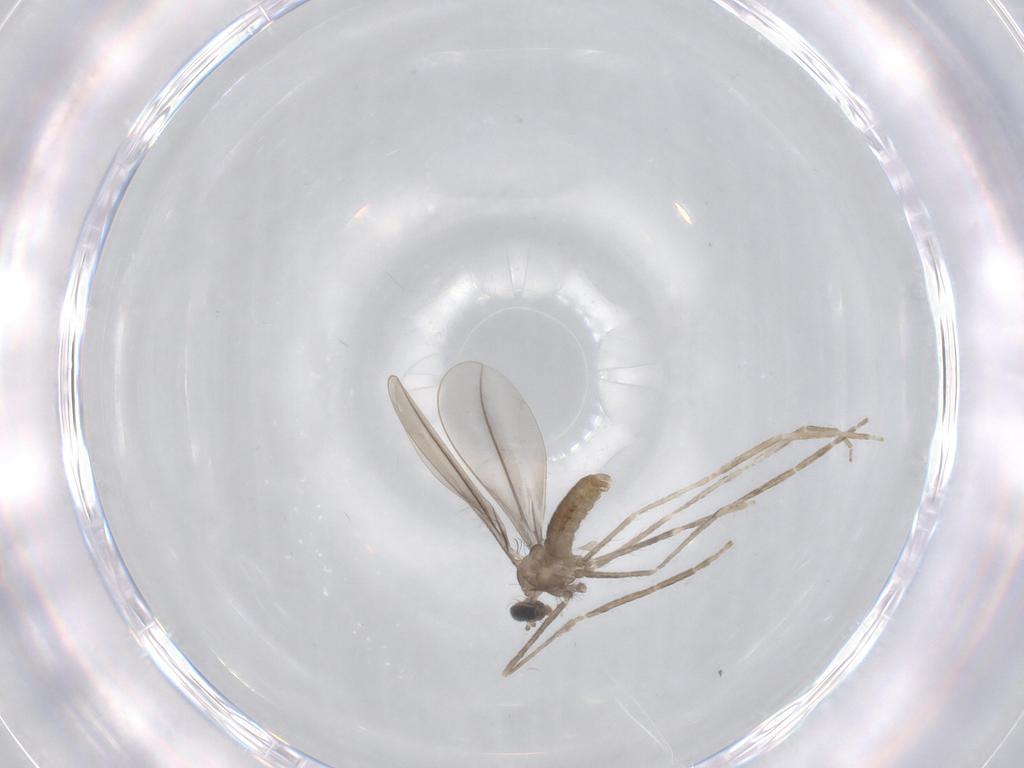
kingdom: Animalia
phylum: Arthropoda
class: Insecta
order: Diptera
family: Cecidomyiidae
